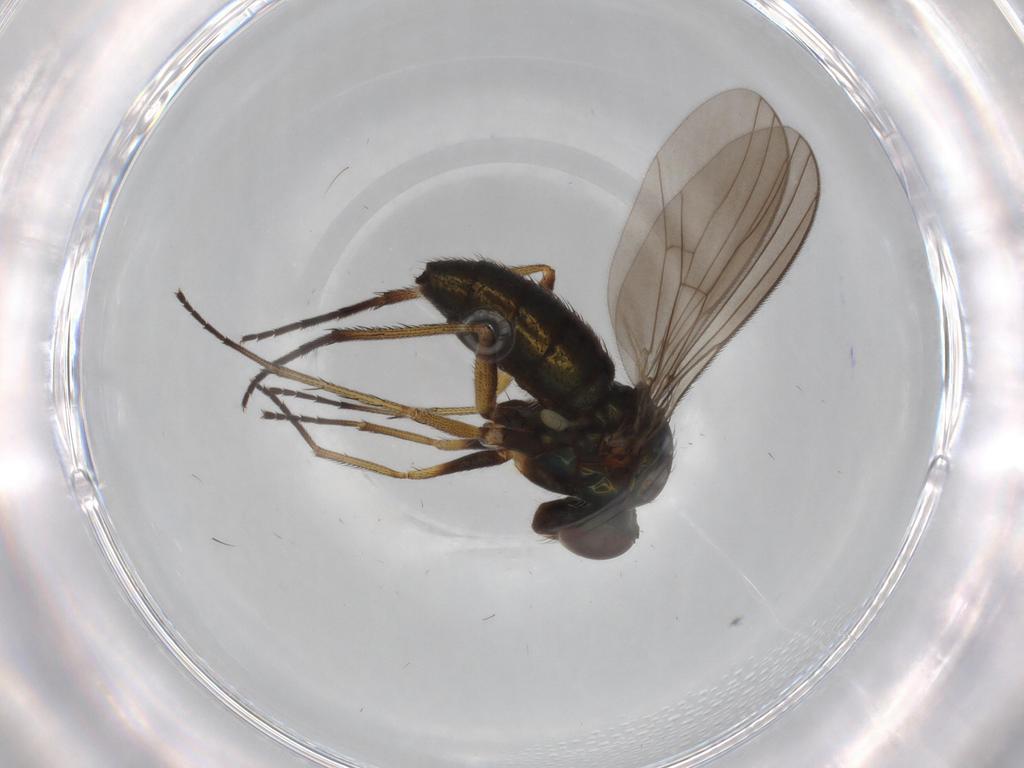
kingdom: Animalia
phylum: Arthropoda
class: Insecta
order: Diptera
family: Dolichopodidae
